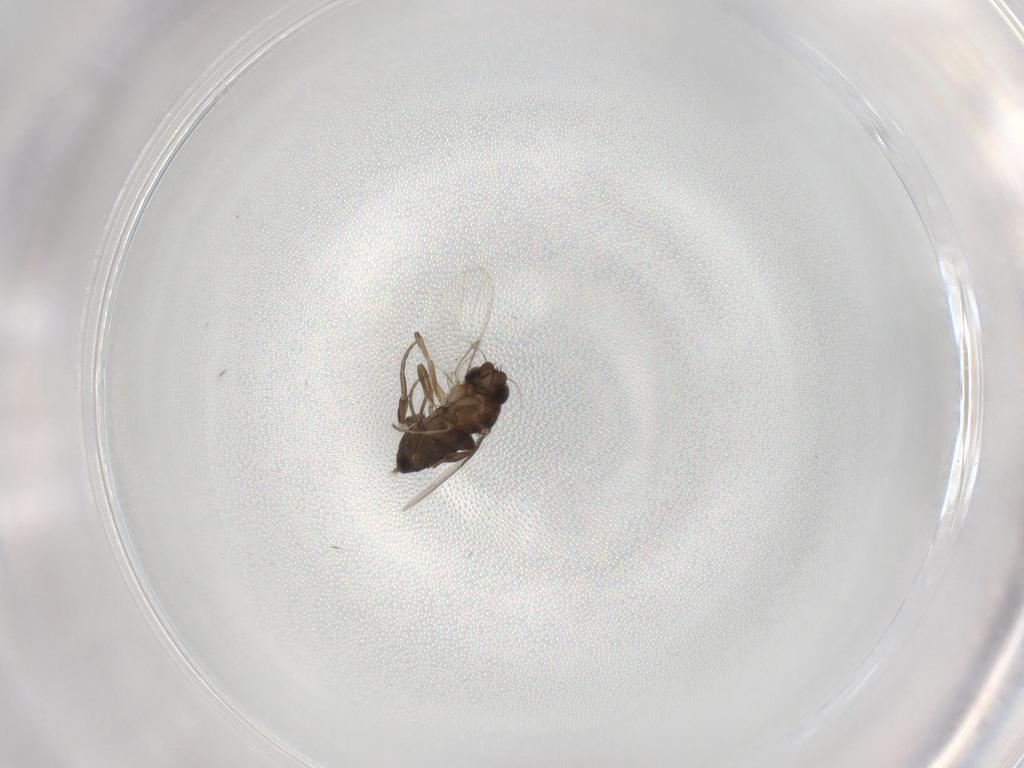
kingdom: Animalia
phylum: Arthropoda
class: Insecta
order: Diptera
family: Phoridae
